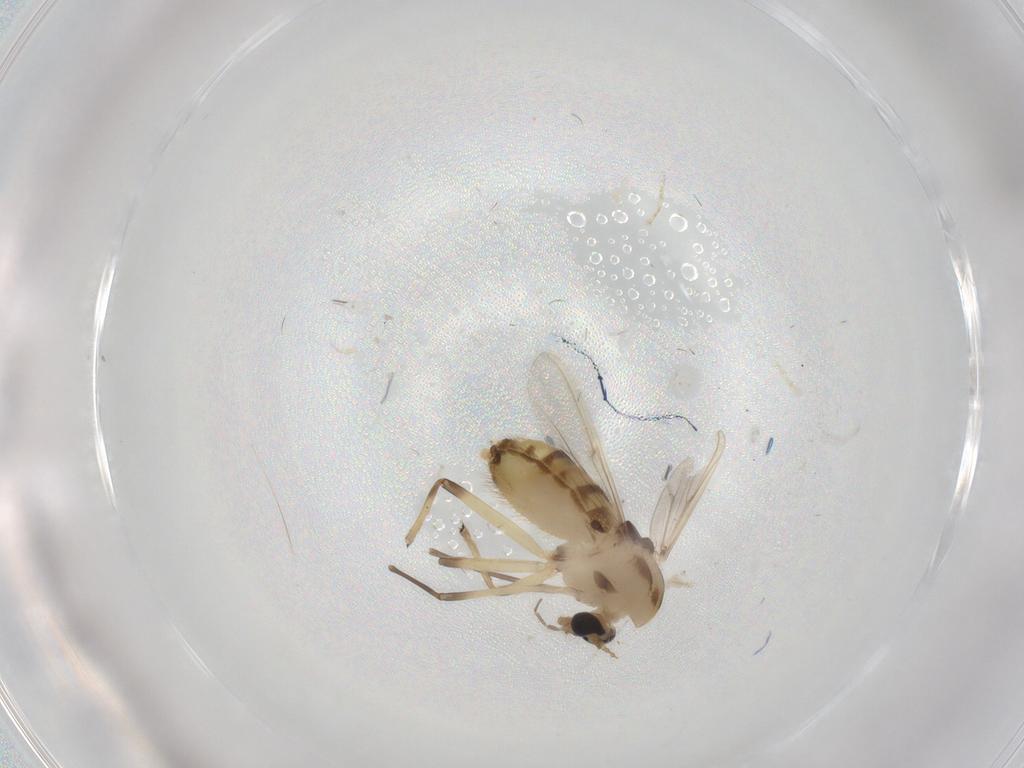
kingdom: Animalia
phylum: Arthropoda
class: Insecta
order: Diptera
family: Chironomidae
